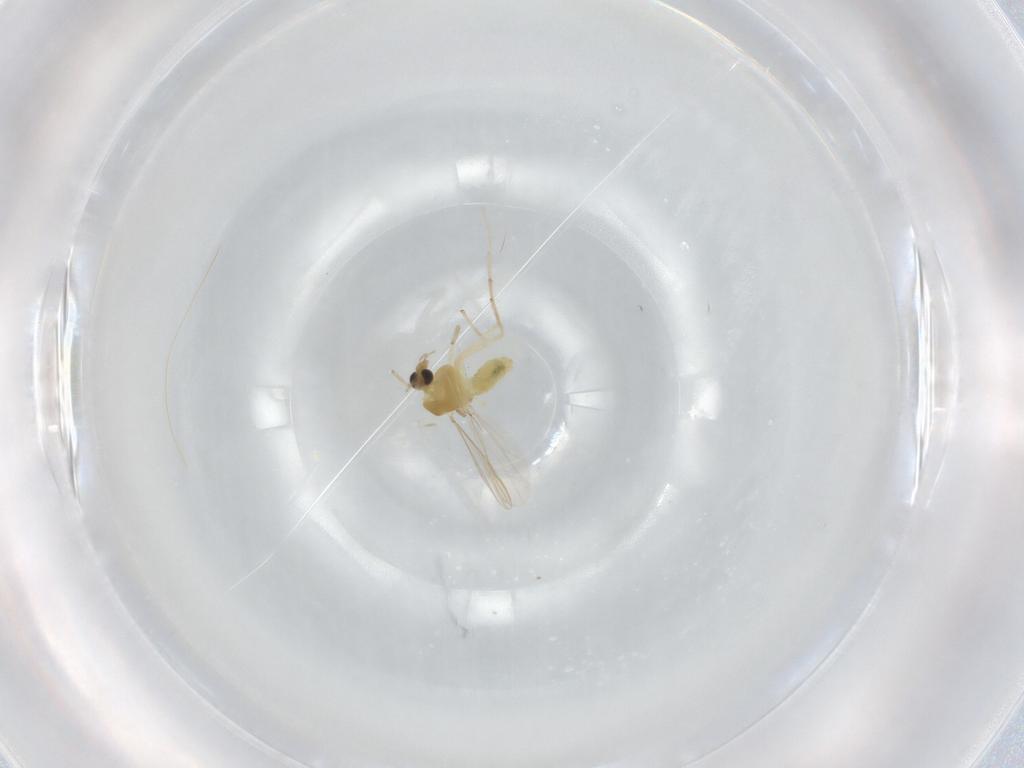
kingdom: Animalia
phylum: Arthropoda
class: Insecta
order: Diptera
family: Chironomidae
